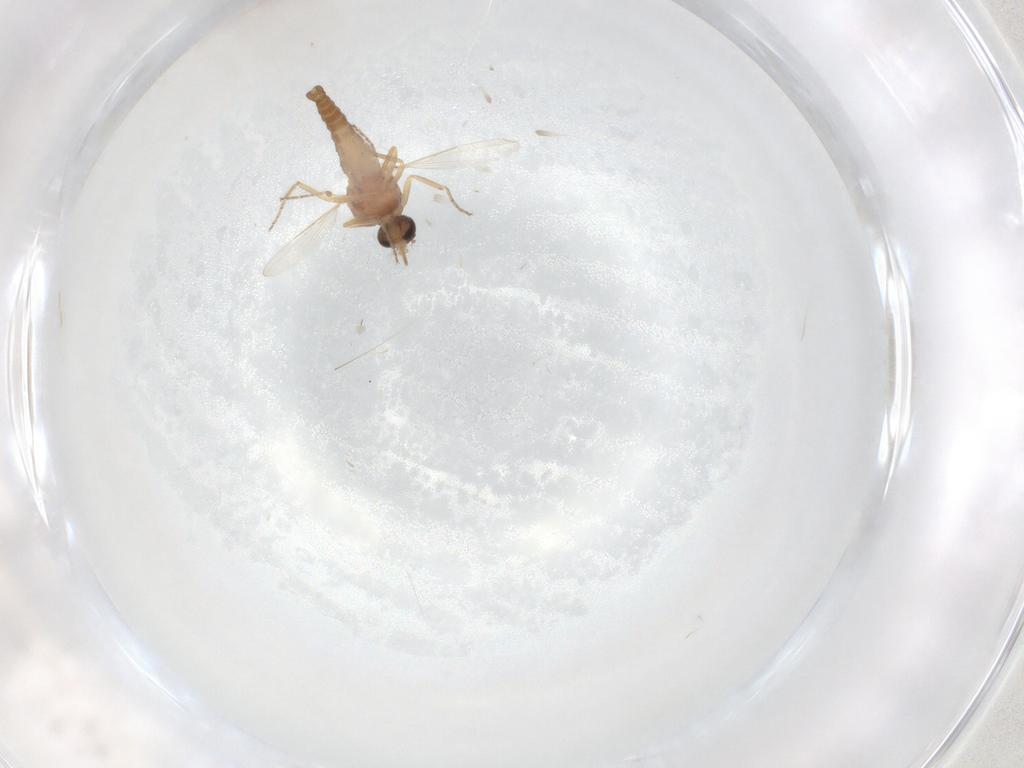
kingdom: Animalia
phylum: Arthropoda
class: Insecta
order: Diptera
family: Ceratopogonidae
